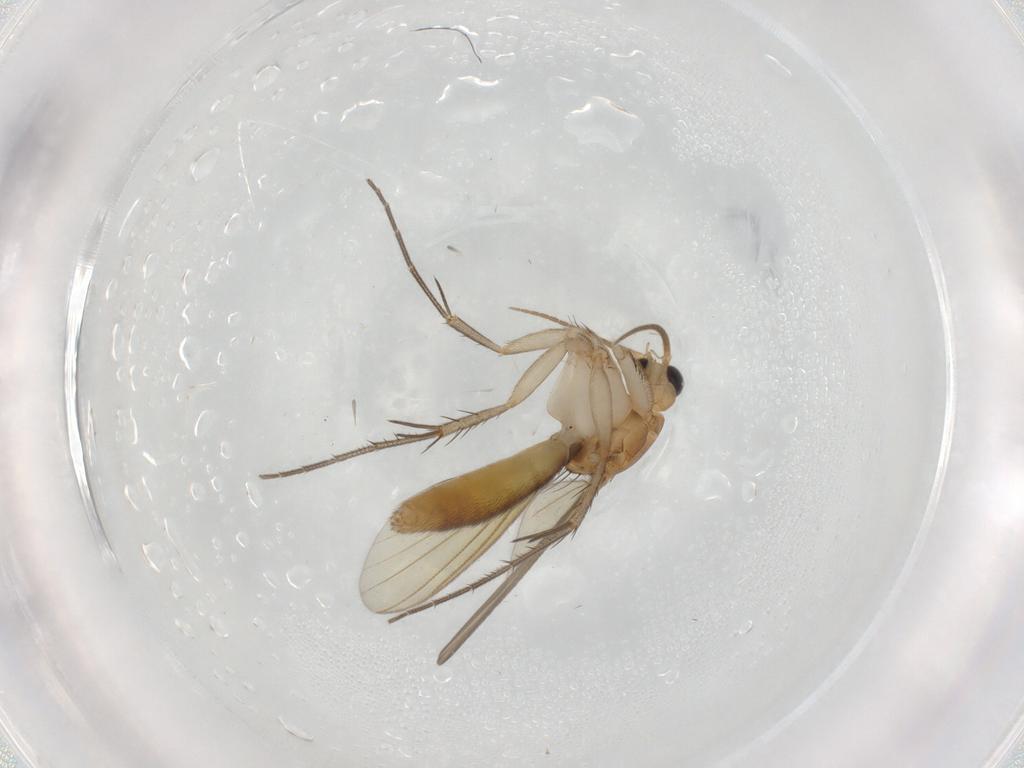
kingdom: Animalia
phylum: Arthropoda
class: Insecta
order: Diptera
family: Mycetophilidae
